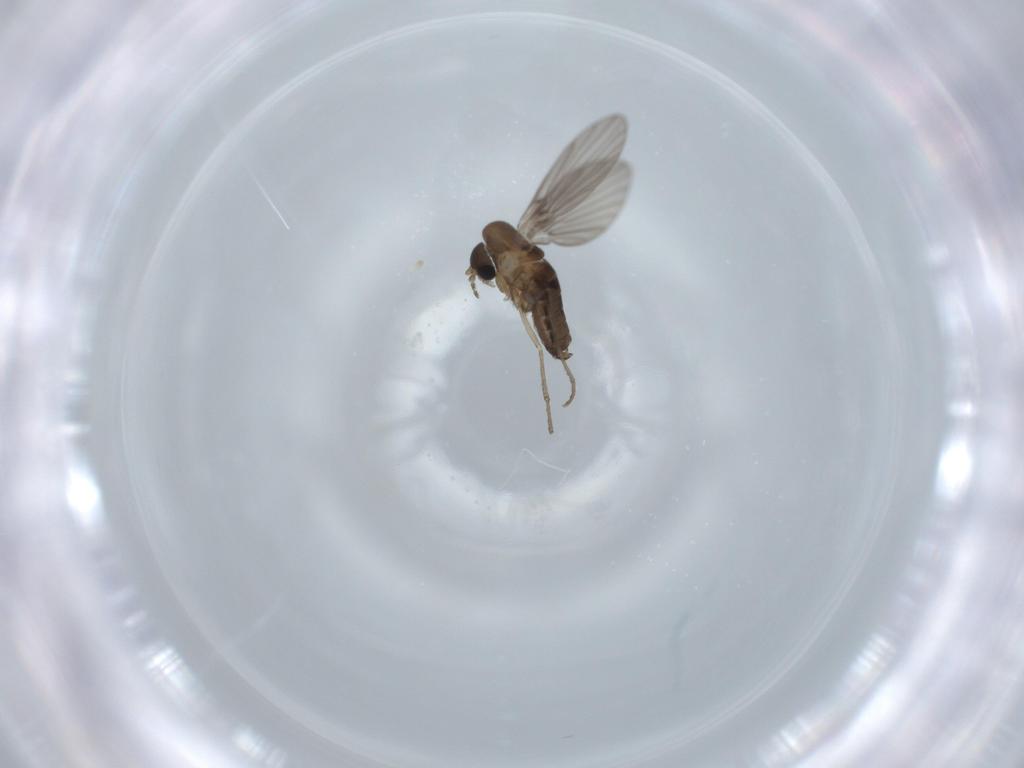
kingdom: Animalia
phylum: Arthropoda
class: Insecta
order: Diptera
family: Psychodidae
